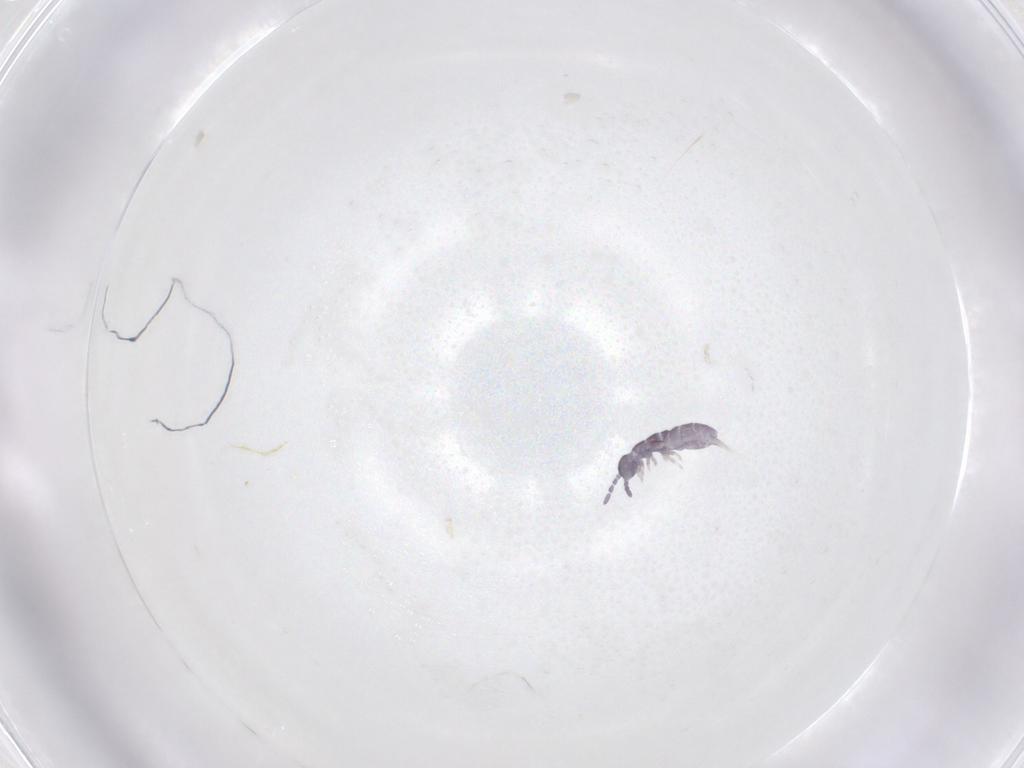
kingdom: Animalia
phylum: Arthropoda
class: Collembola
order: Entomobryomorpha
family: Isotomidae
